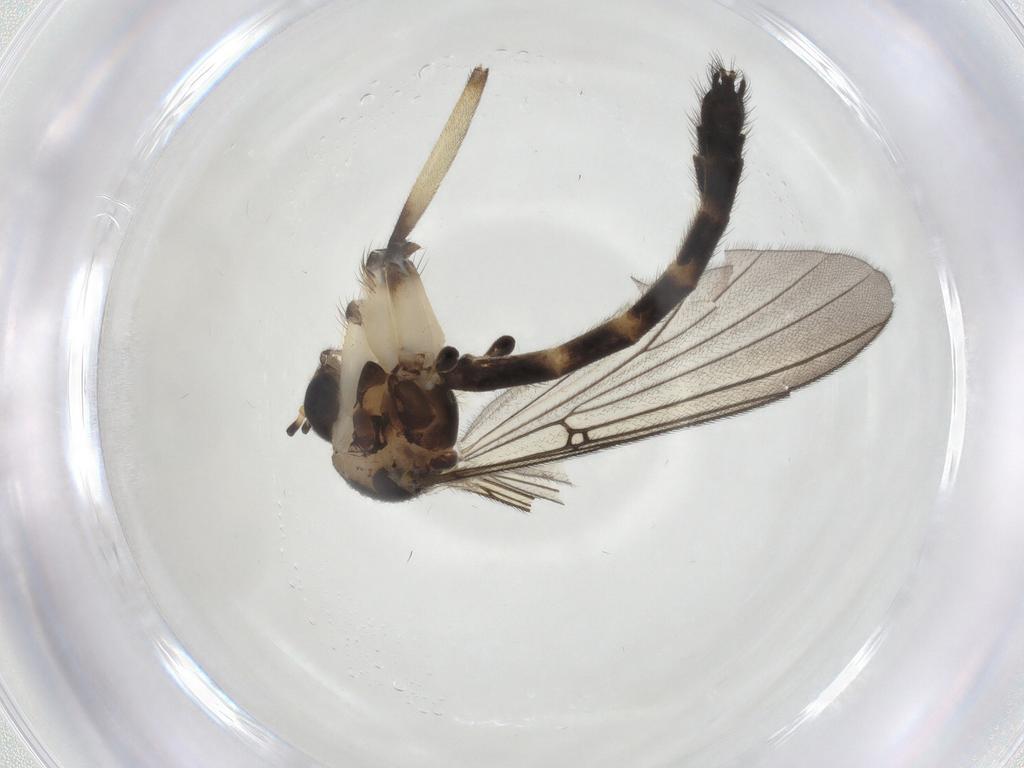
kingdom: Animalia
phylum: Arthropoda
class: Insecta
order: Diptera
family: Mycetophilidae
